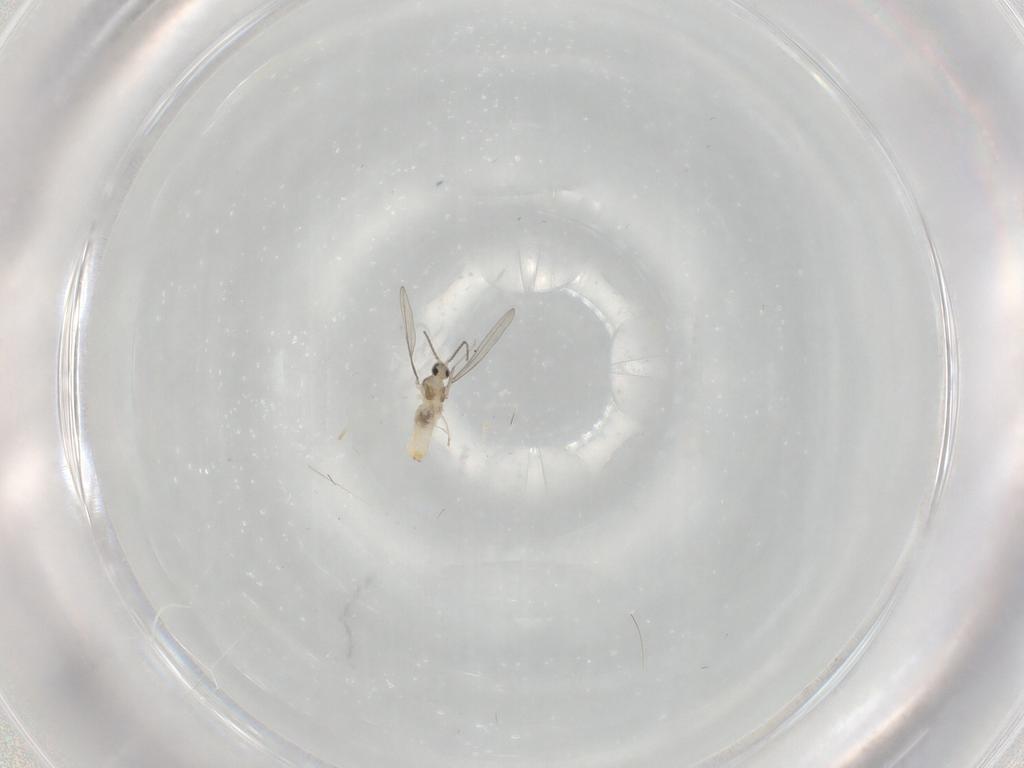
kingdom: Animalia
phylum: Arthropoda
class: Insecta
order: Diptera
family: Cecidomyiidae
